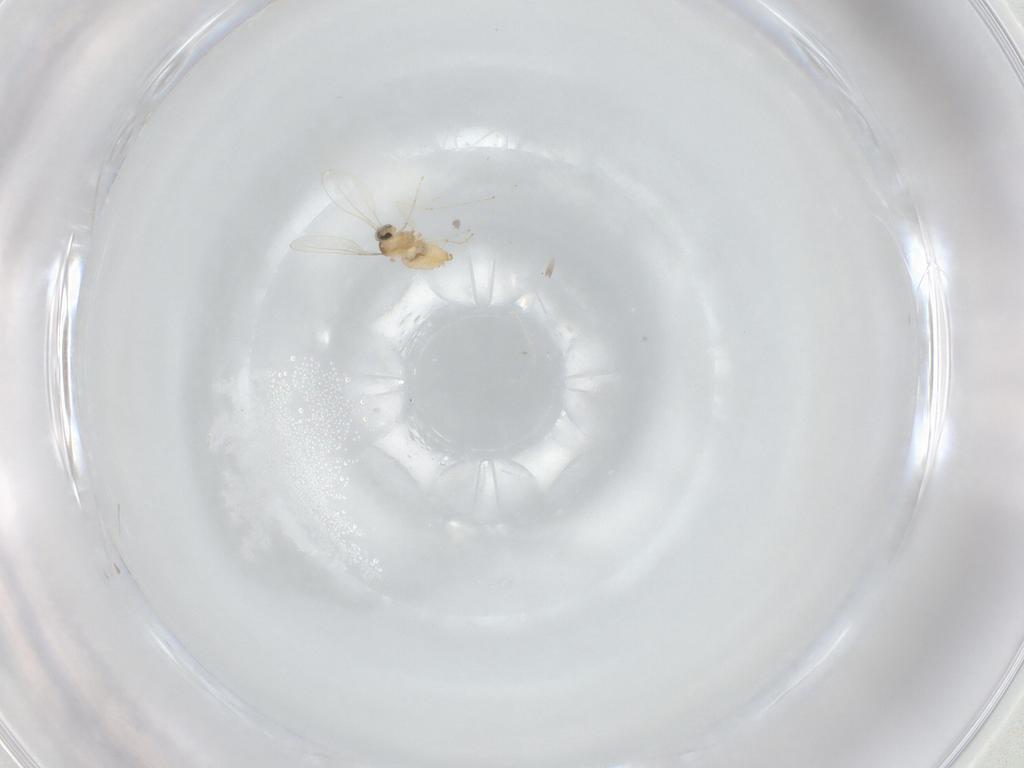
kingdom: Animalia
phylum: Arthropoda
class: Insecta
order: Diptera
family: Cecidomyiidae
